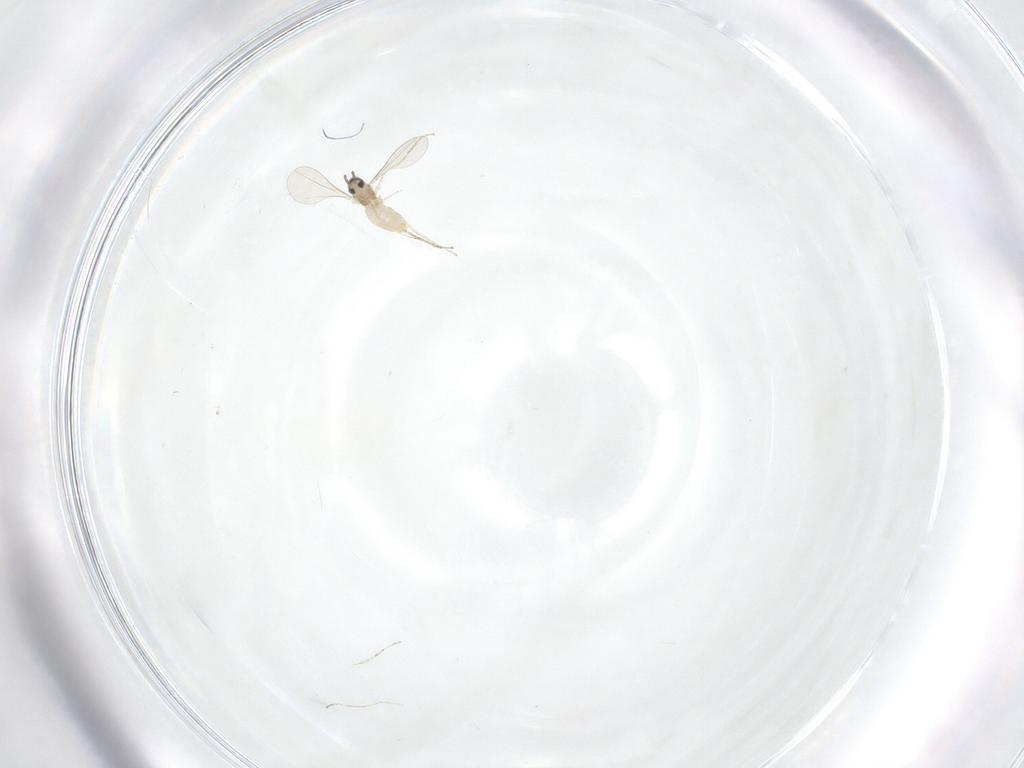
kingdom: Animalia
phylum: Arthropoda
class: Insecta
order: Diptera
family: Cecidomyiidae
